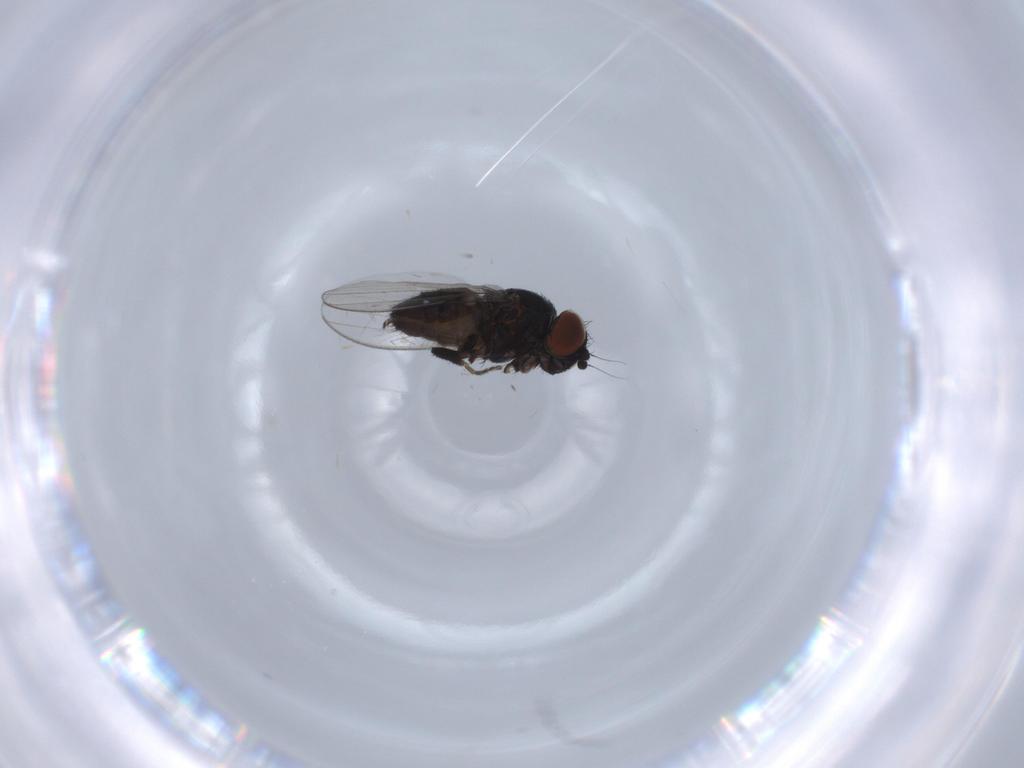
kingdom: Animalia
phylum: Arthropoda
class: Insecta
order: Diptera
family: Milichiidae
